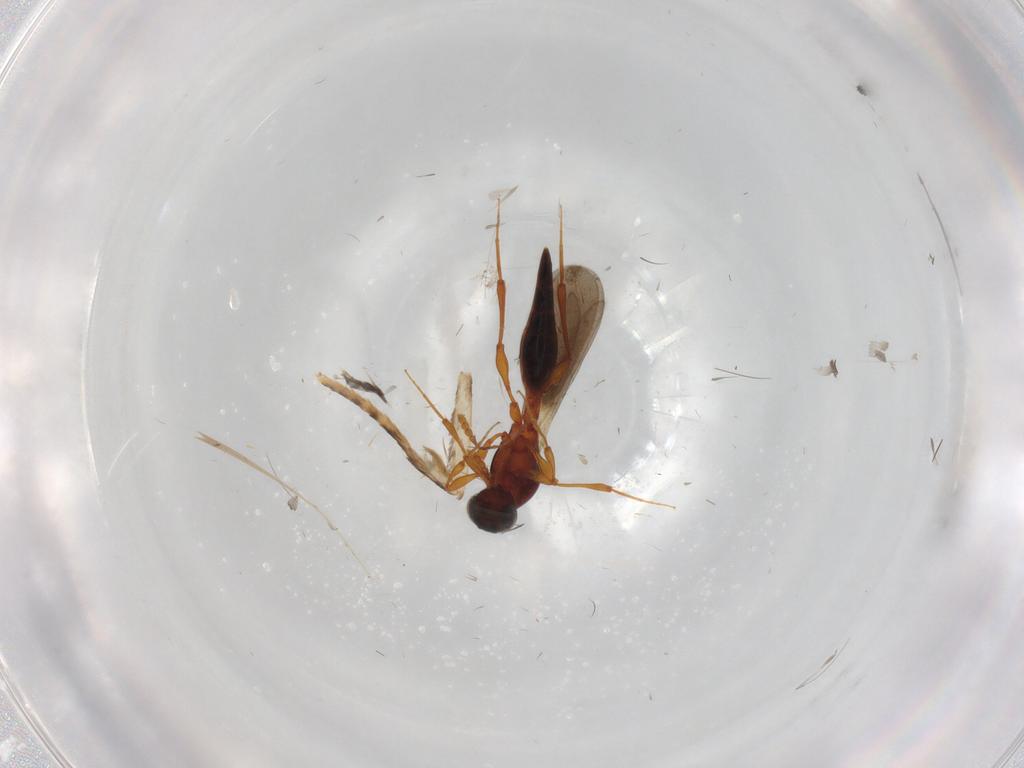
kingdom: Animalia
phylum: Arthropoda
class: Insecta
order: Hymenoptera
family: Platygastridae
